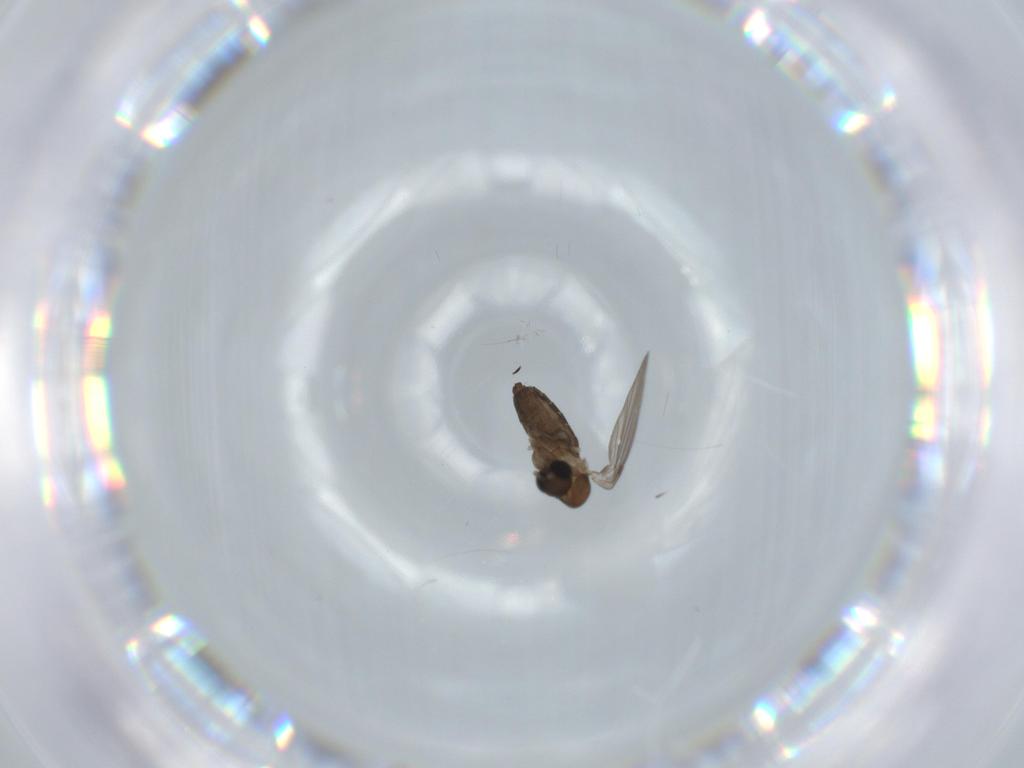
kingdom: Animalia
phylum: Arthropoda
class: Insecta
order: Diptera
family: Psychodidae
